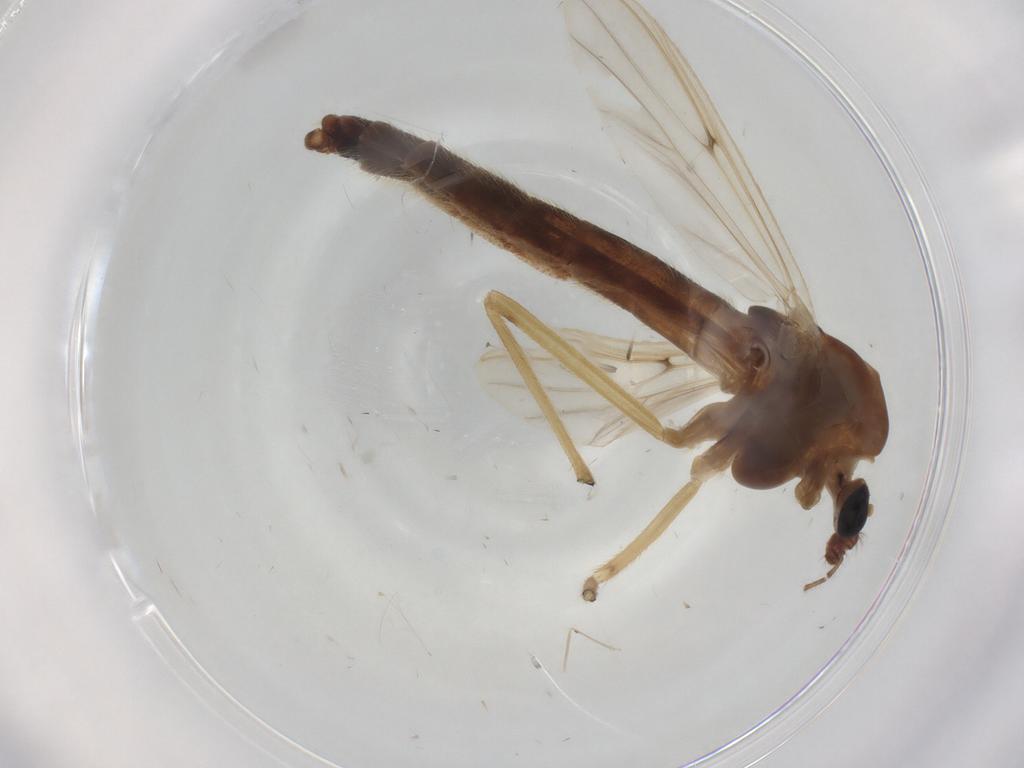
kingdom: Animalia
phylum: Arthropoda
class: Insecta
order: Diptera
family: Chironomidae
